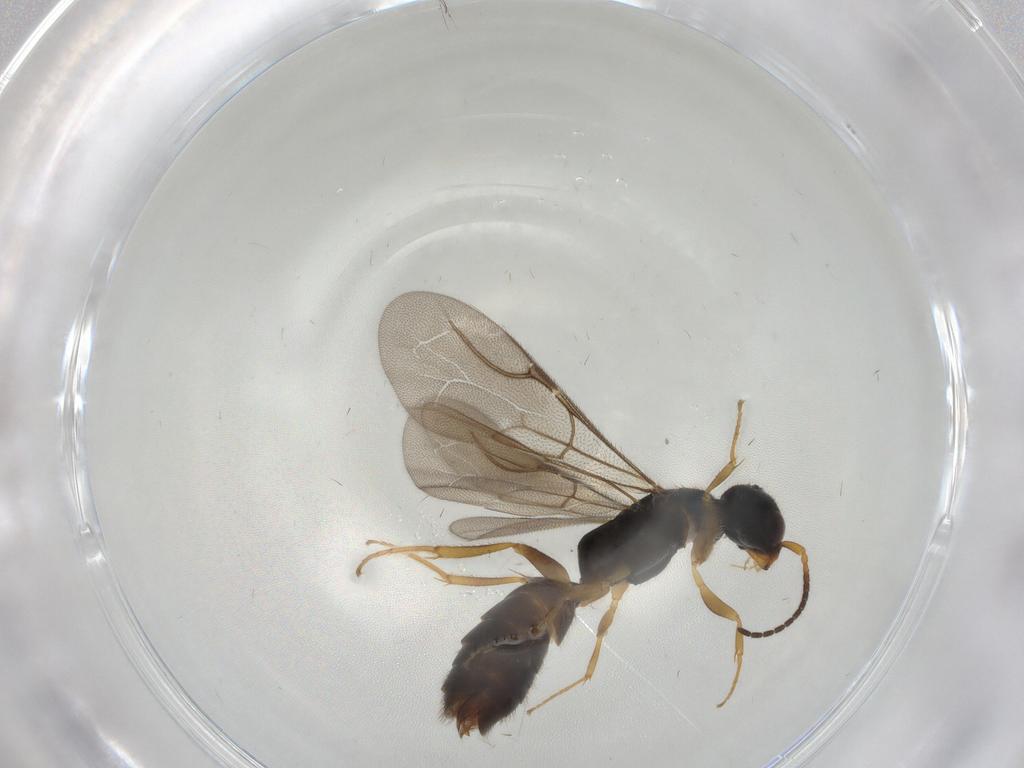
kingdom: Animalia
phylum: Arthropoda
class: Insecta
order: Hymenoptera
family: Bethylidae
